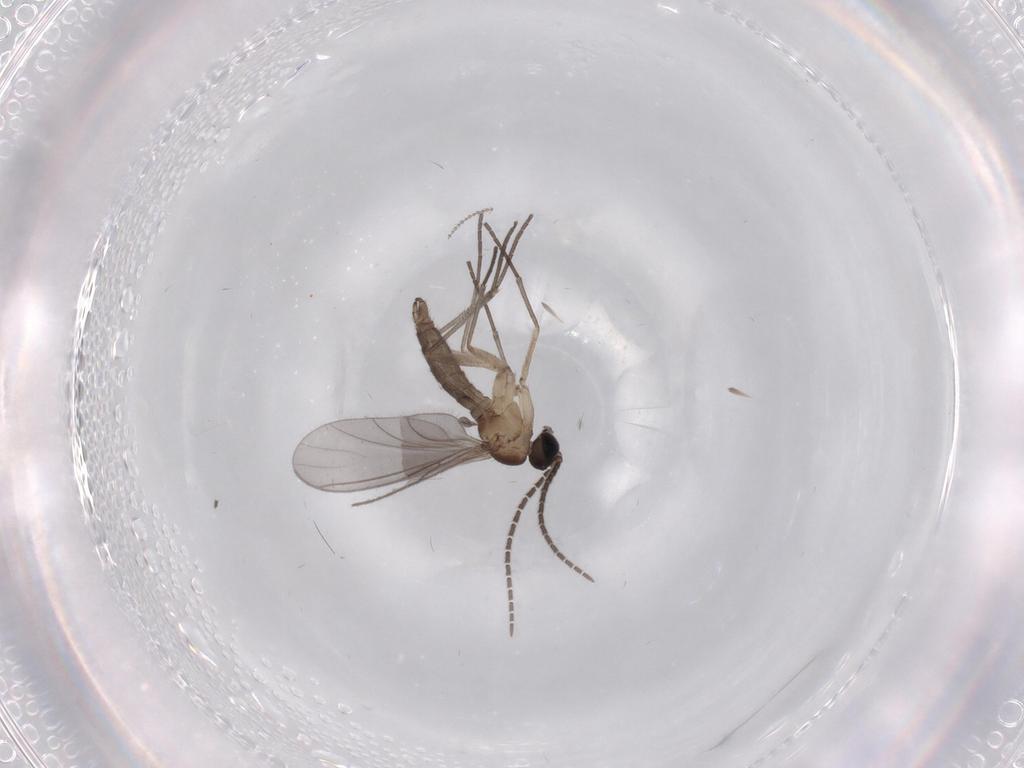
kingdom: Animalia
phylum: Arthropoda
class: Insecta
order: Diptera
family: Sciaridae
